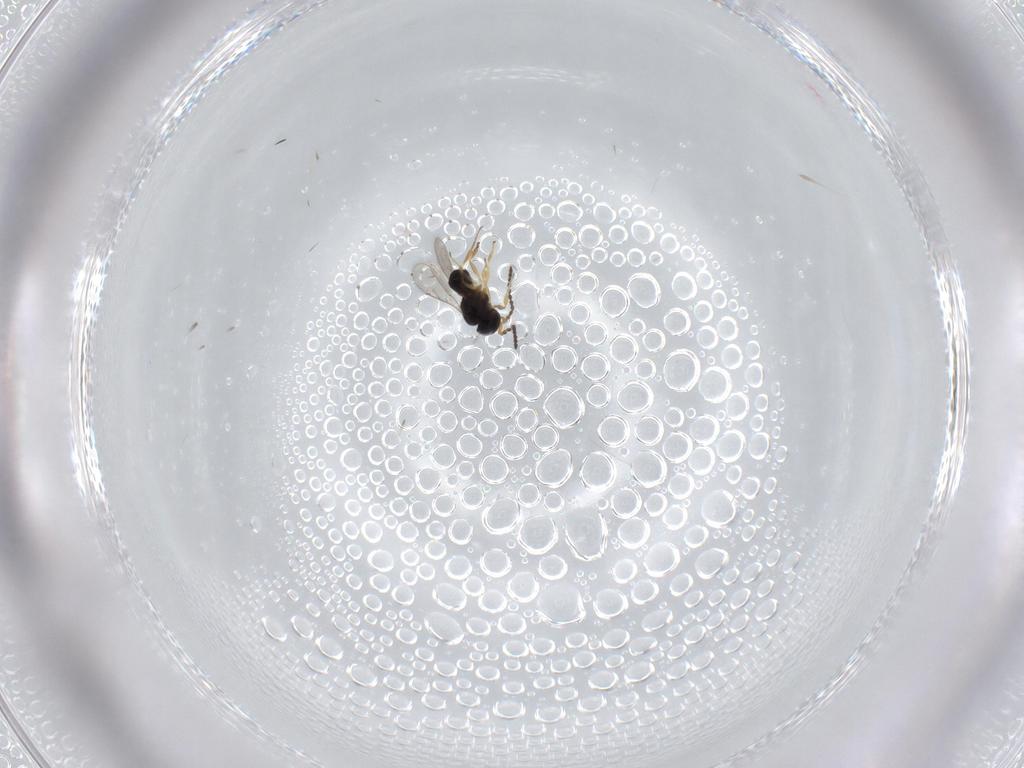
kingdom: Animalia
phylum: Arthropoda
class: Insecta
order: Hymenoptera
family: Scelionidae
